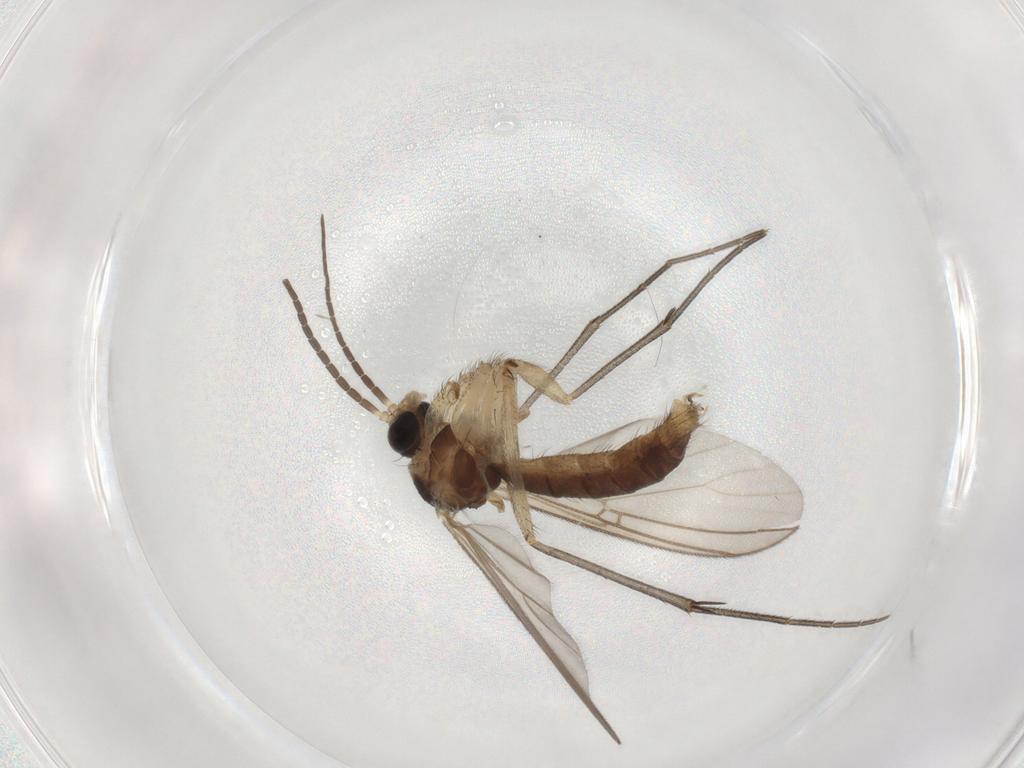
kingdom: Animalia
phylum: Arthropoda
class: Insecta
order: Diptera
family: Mycetophilidae
